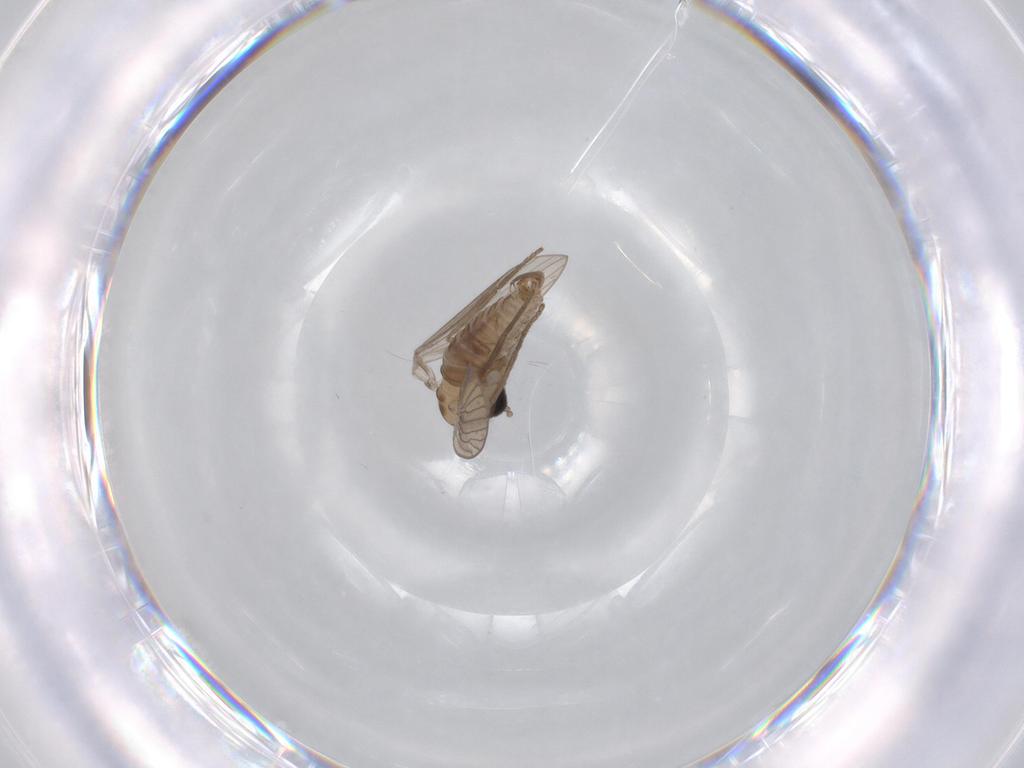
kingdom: Animalia
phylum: Arthropoda
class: Insecta
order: Diptera
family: Psychodidae
